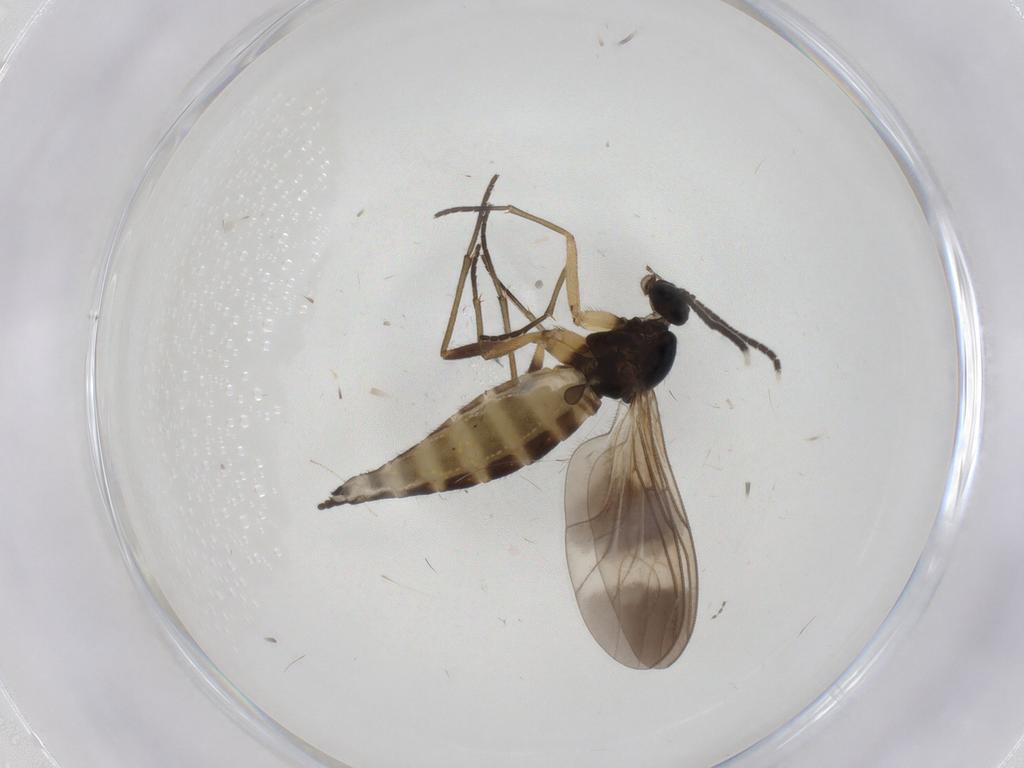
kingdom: Animalia
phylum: Arthropoda
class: Insecta
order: Diptera
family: Sciaridae
